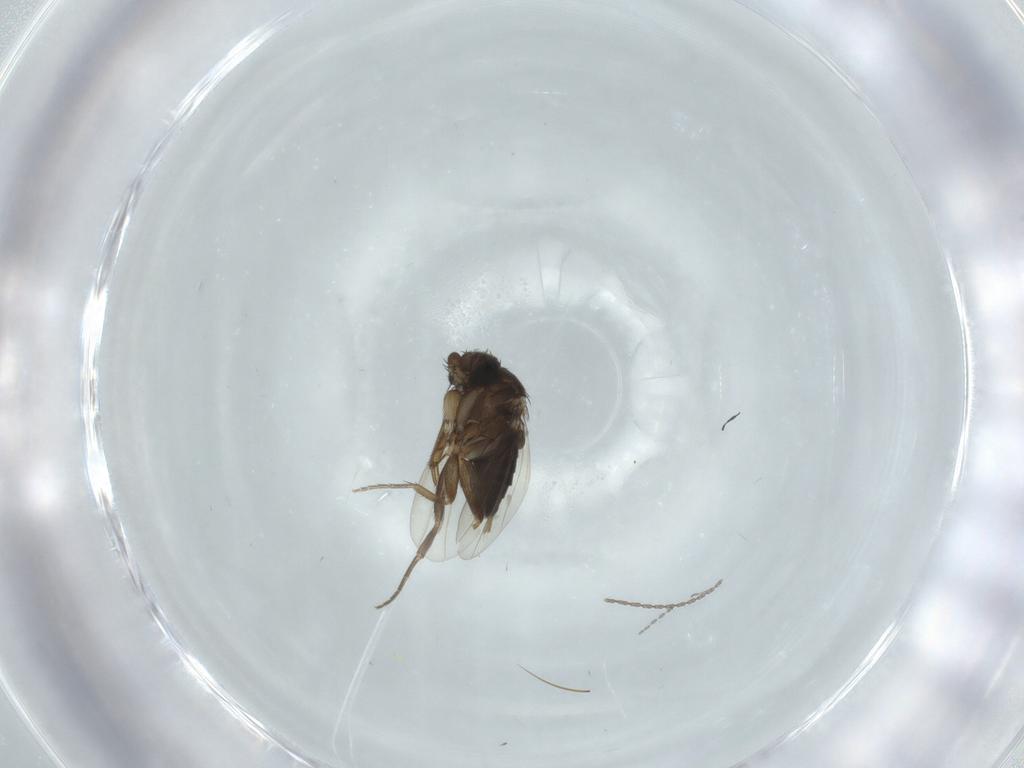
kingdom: Animalia
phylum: Arthropoda
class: Insecta
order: Diptera
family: Cecidomyiidae
